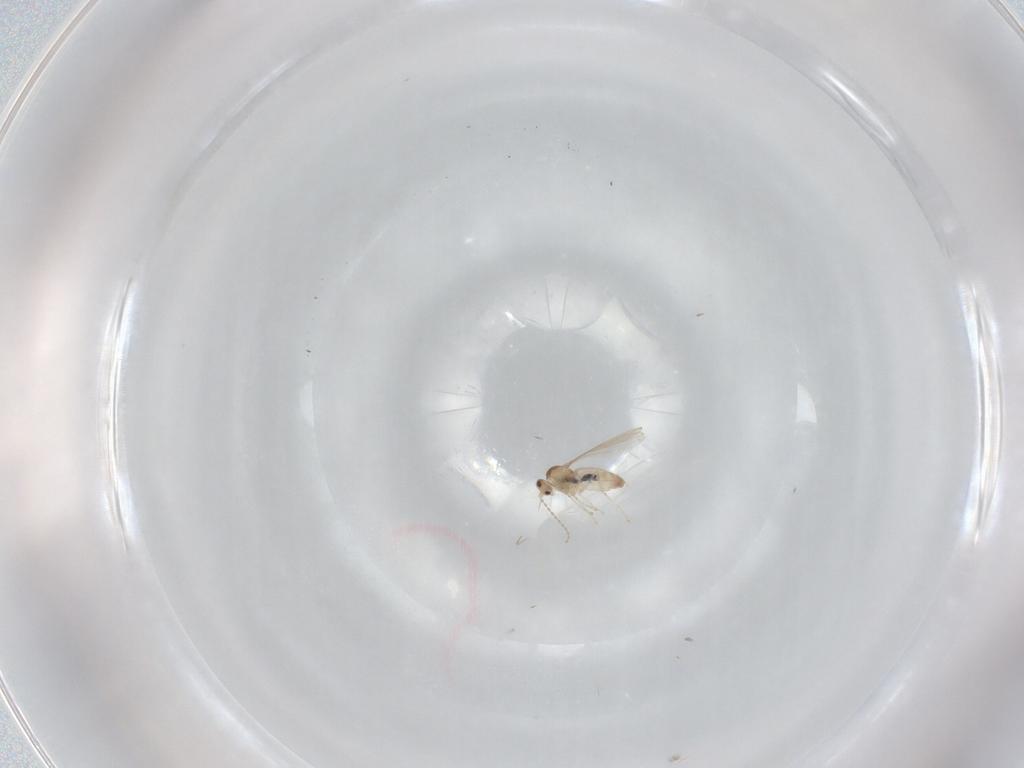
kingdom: Animalia
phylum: Arthropoda
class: Insecta
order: Diptera
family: Cecidomyiidae
